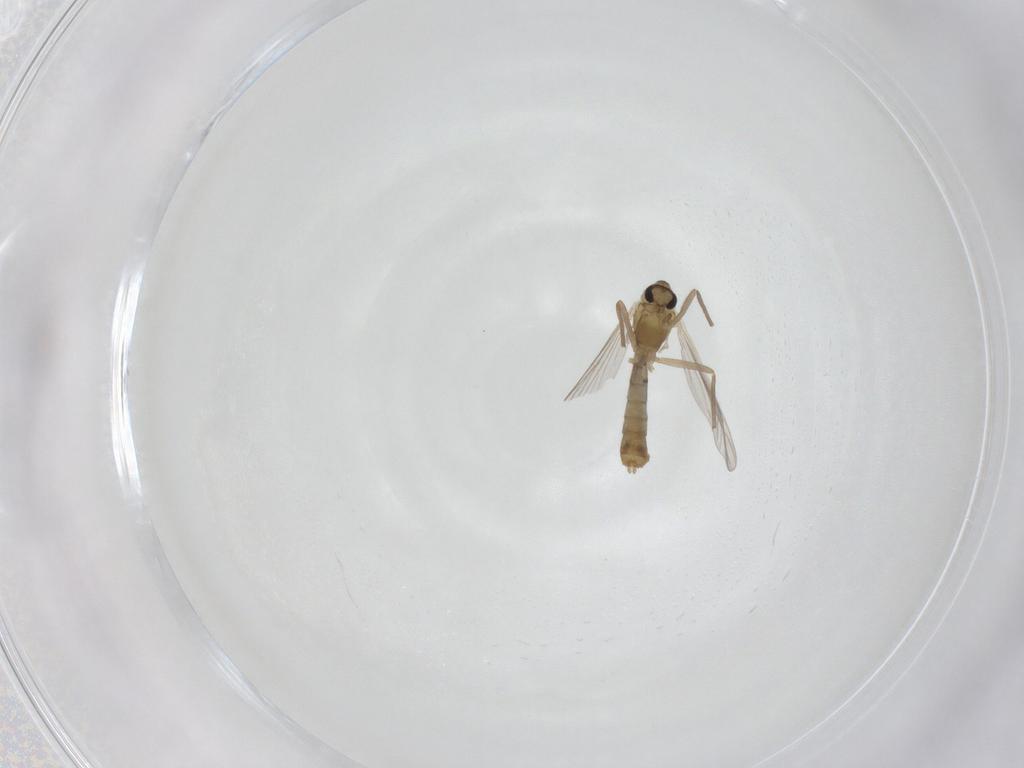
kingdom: Animalia
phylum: Arthropoda
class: Insecta
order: Diptera
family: Chironomidae
